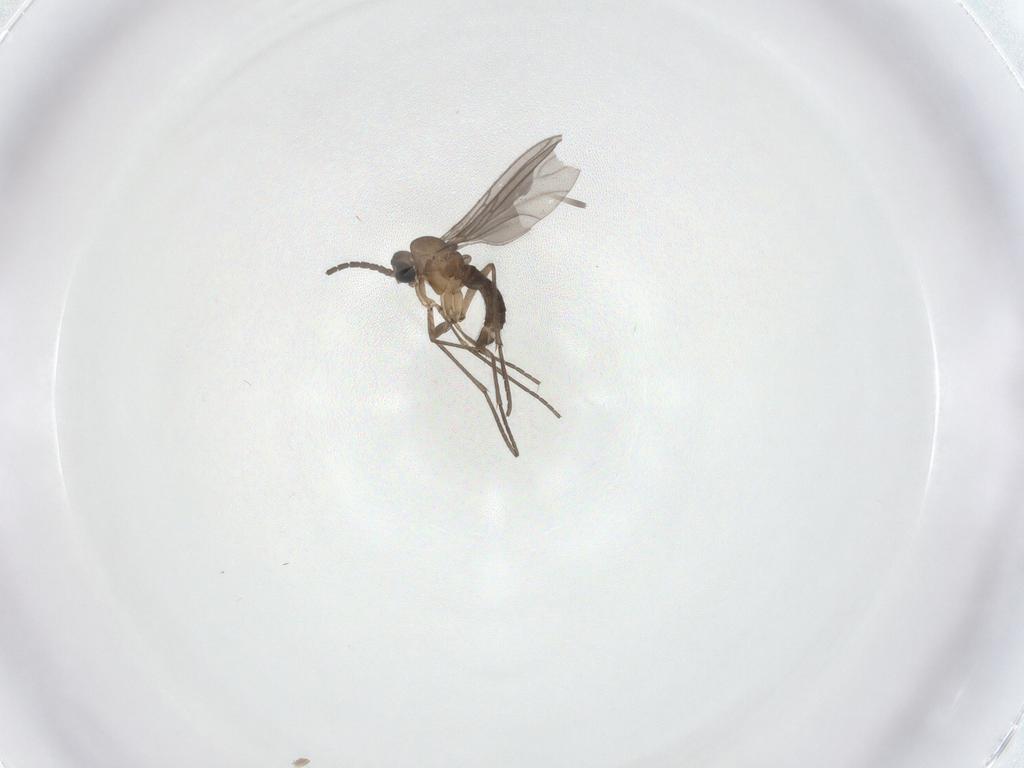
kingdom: Animalia
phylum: Arthropoda
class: Insecta
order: Diptera
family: Sciaridae
